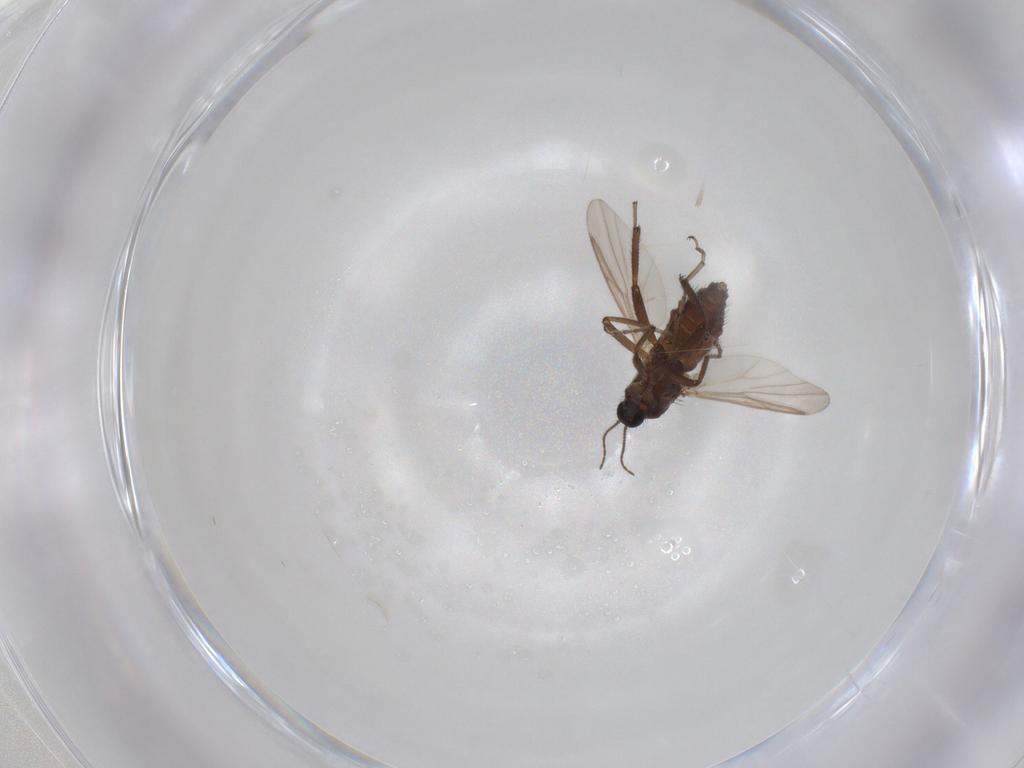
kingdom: Animalia
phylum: Arthropoda
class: Insecta
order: Diptera
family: Ceratopogonidae
